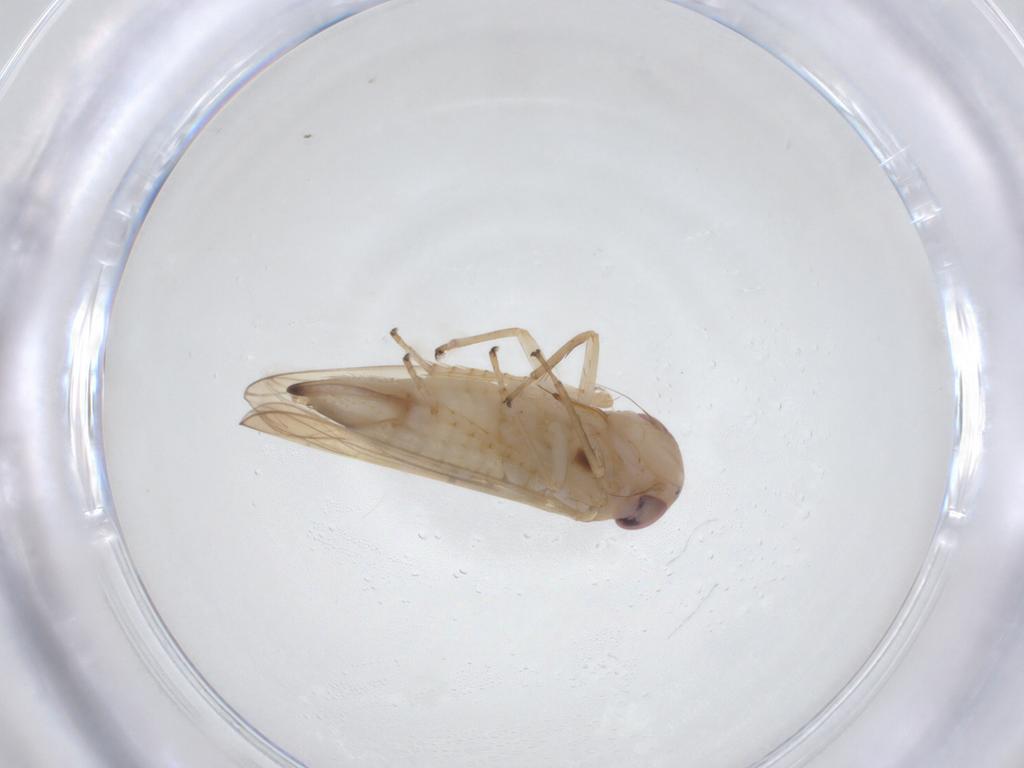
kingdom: Animalia
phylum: Arthropoda
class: Insecta
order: Hemiptera
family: Cicadellidae
